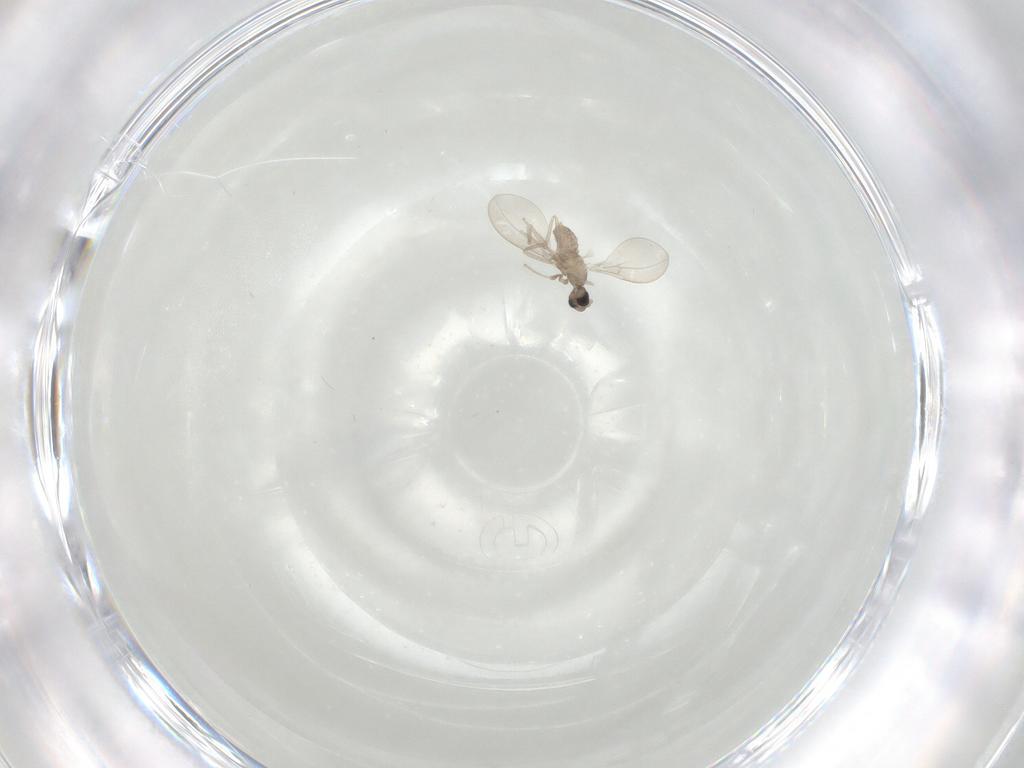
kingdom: Animalia
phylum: Arthropoda
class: Insecta
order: Diptera
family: Cecidomyiidae
